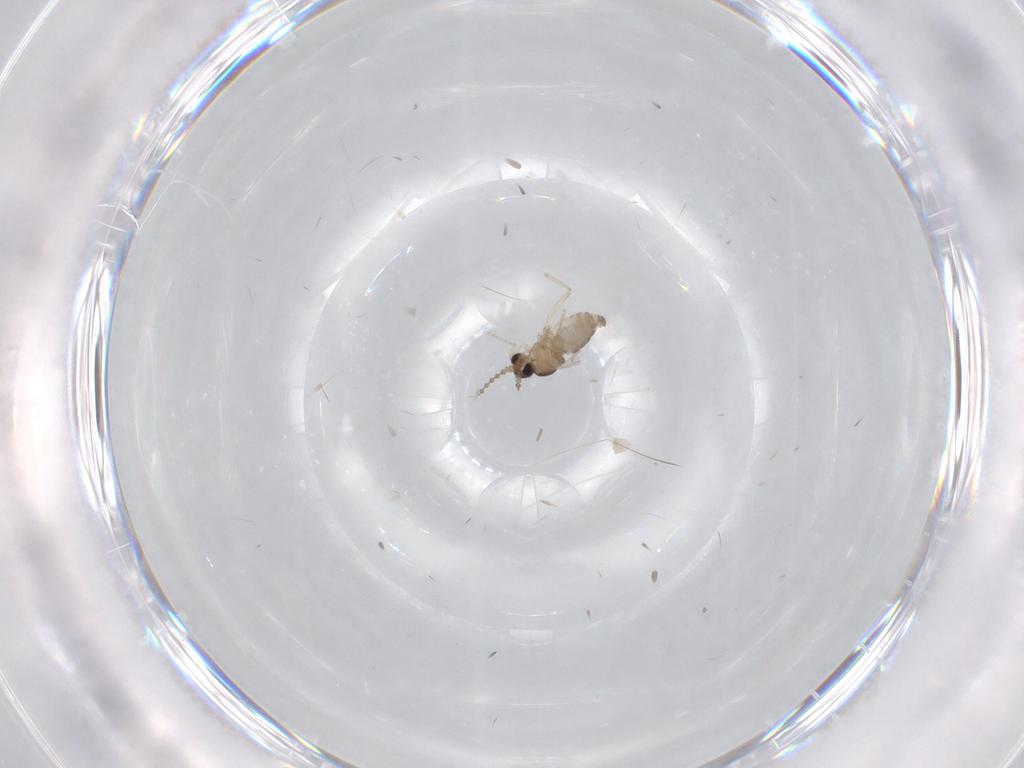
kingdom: Animalia
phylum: Arthropoda
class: Insecta
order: Diptera
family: Cecidomyiidae
